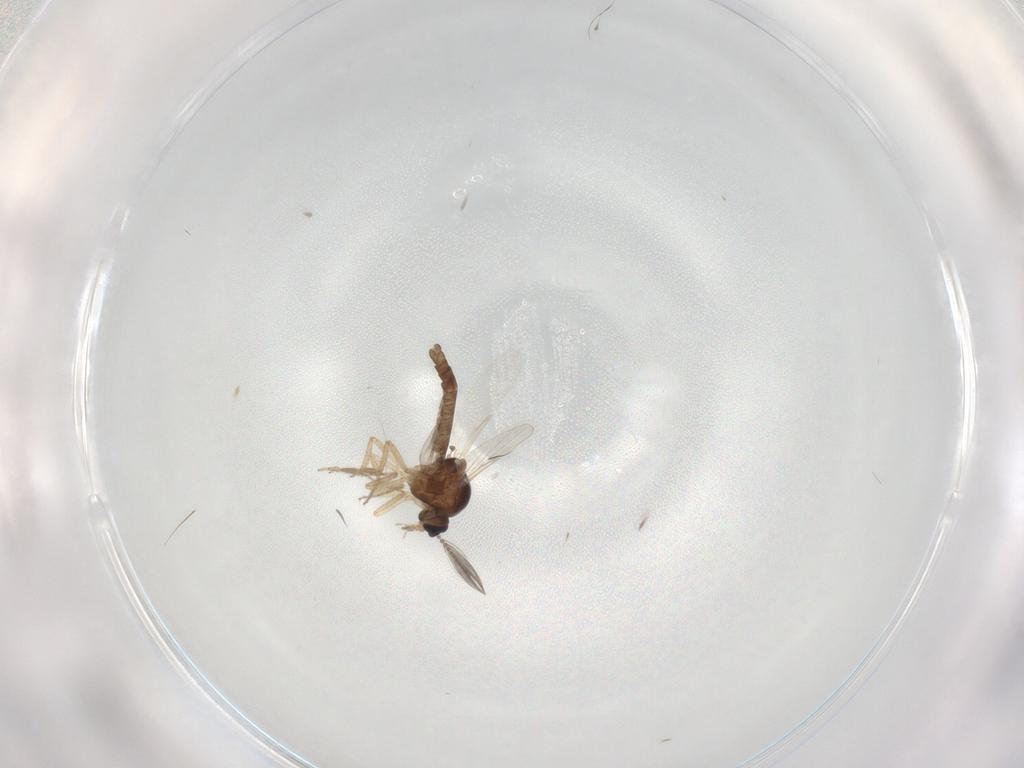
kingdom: Animalia
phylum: Arthropoda
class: Insecta
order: Diptera
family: Ceratopogonidae
